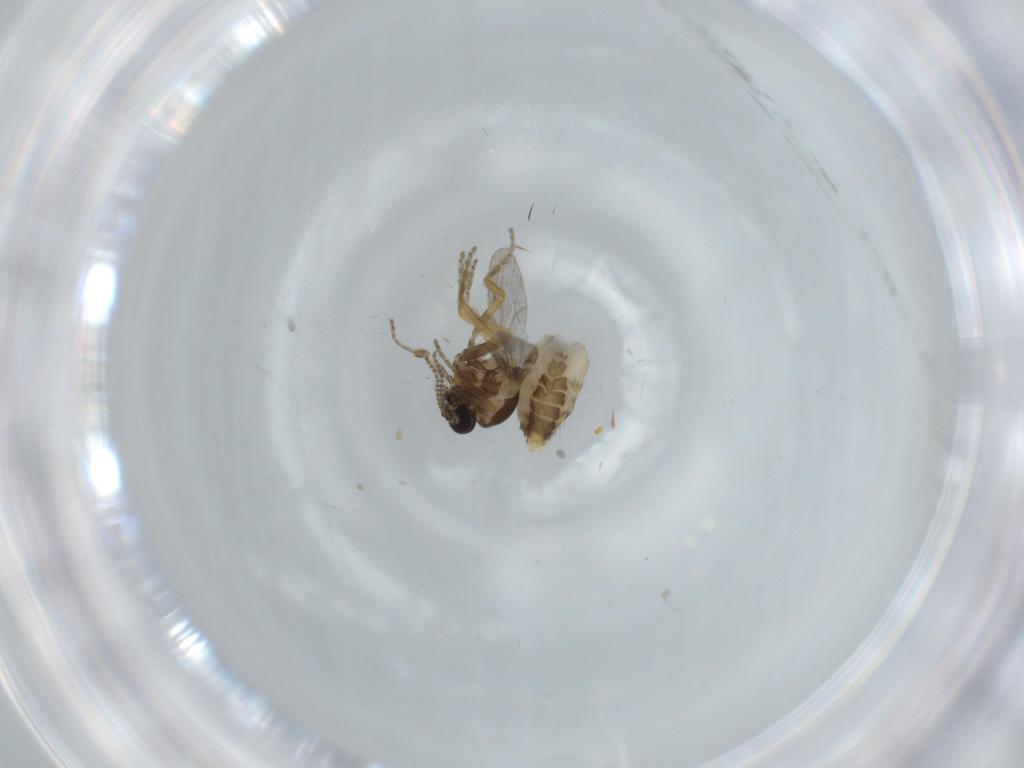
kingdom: Animalia
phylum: Arthropoda
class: Insecta
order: Diptera
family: Ceratopogonidae
